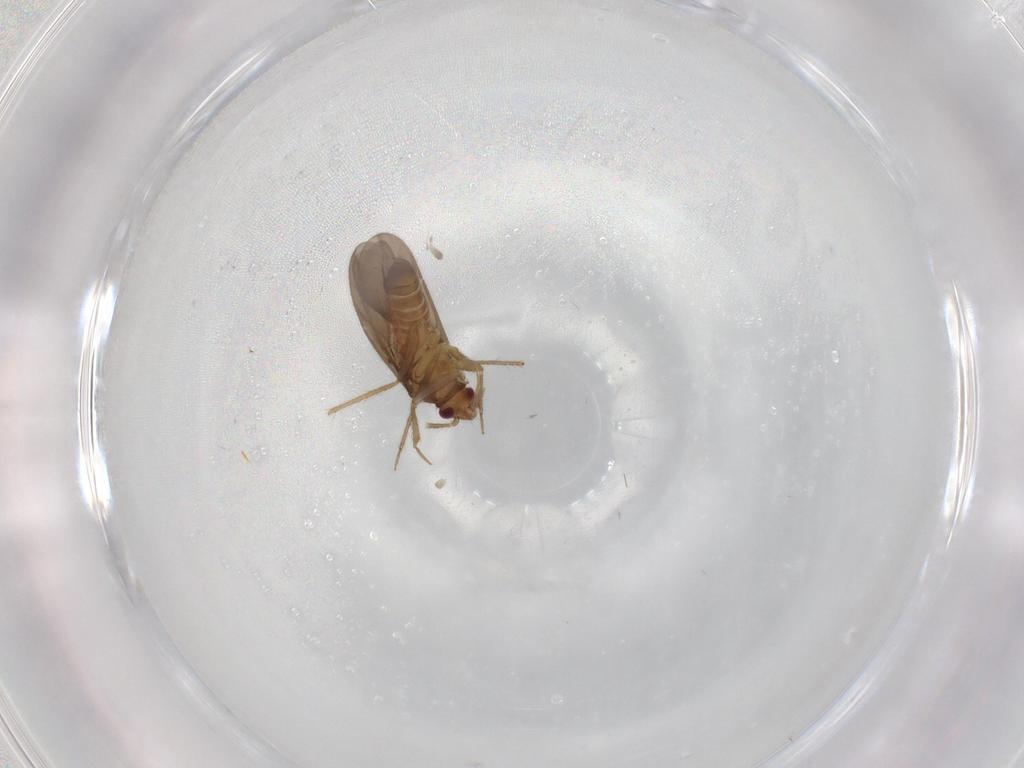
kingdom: Animalia
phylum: Arthropoda
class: Insecta
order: Hemiptera
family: Ceratocombidae
